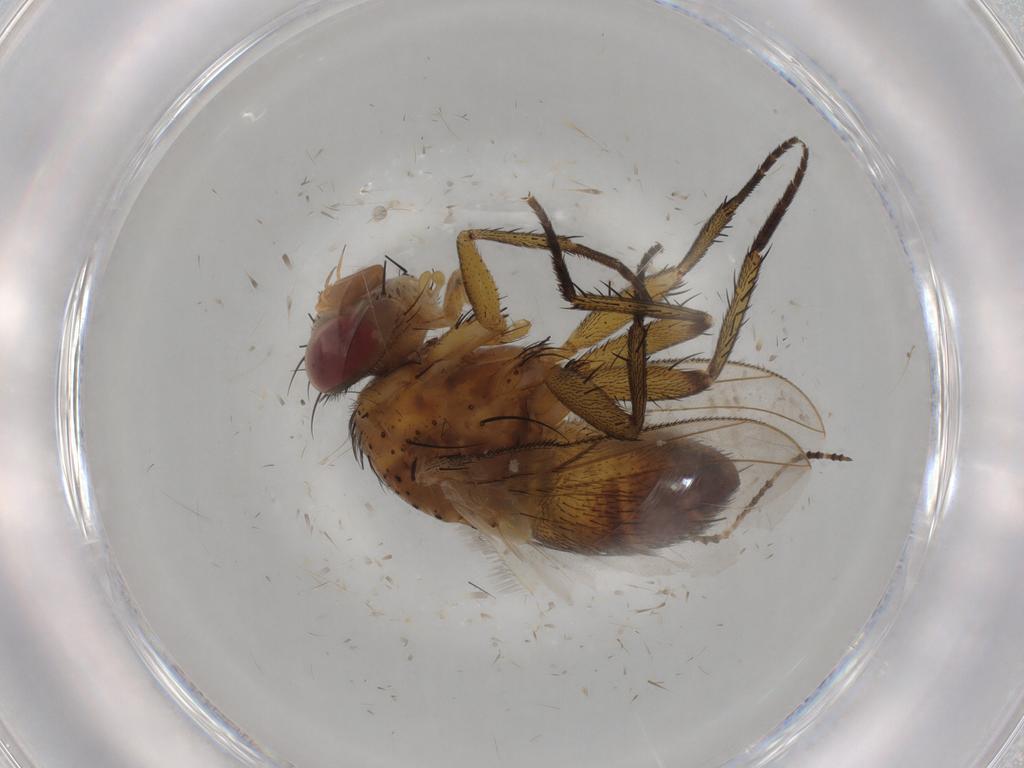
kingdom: Animalia
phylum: Arthropoda
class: Insecta
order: Diptera
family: Tachinidae
